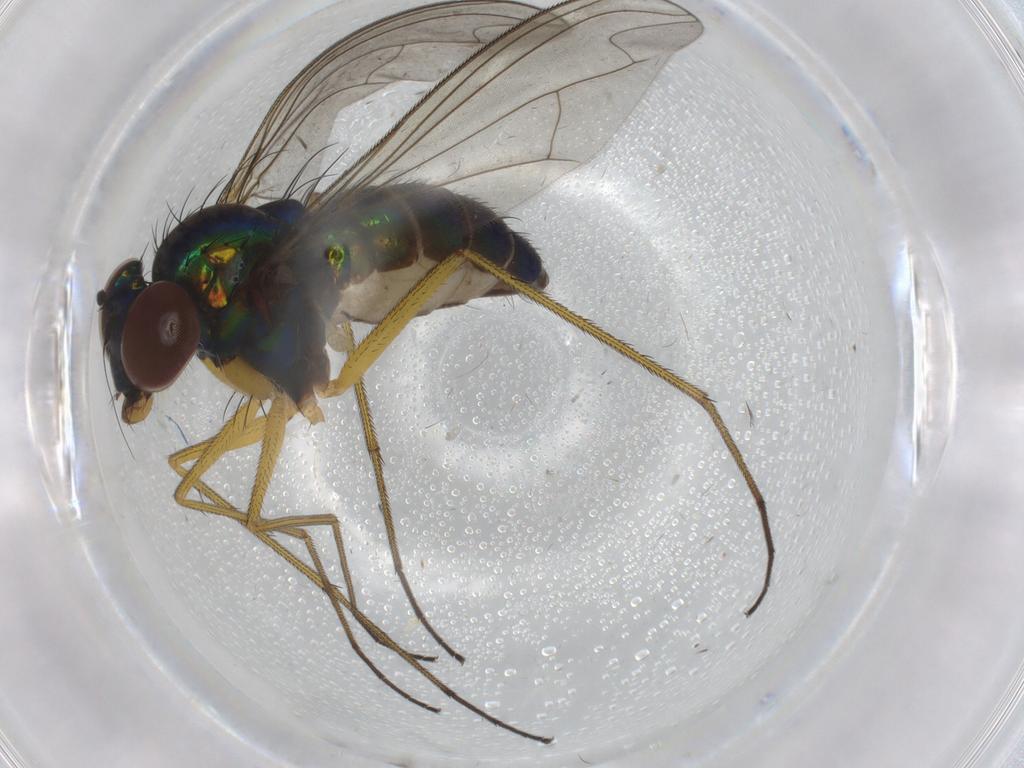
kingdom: Animalia
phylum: Arthropoda
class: Insecta
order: Diptera
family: Dolichopodidae
